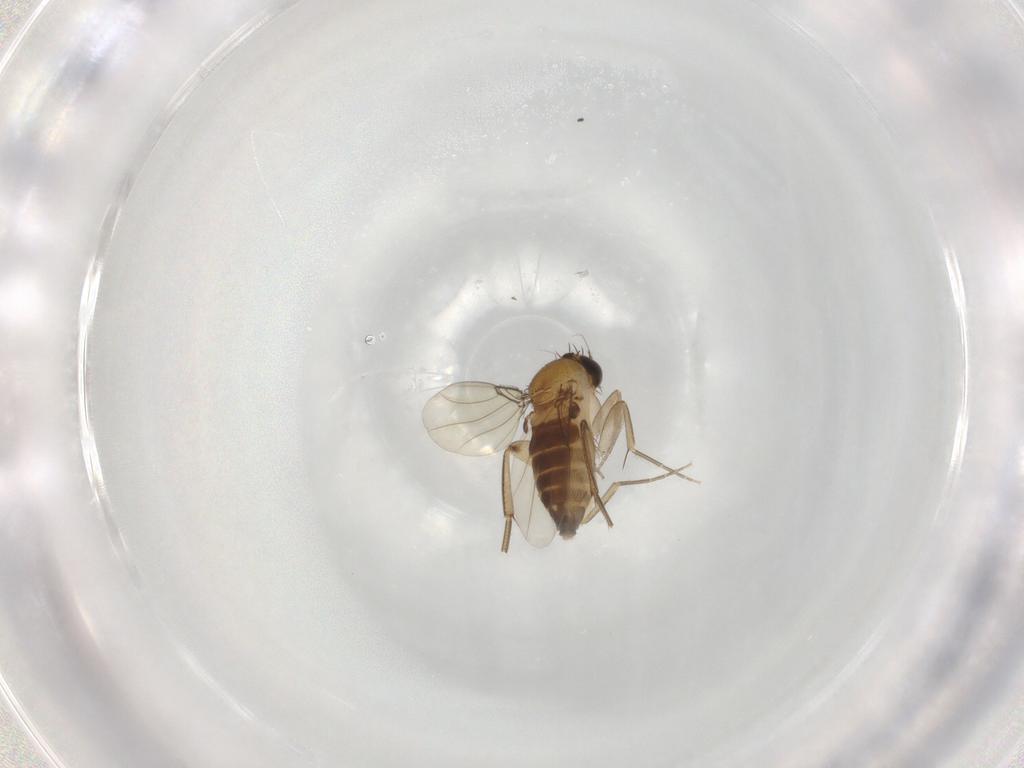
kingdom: Animalia
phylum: Arthropoda
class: Insecta
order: Diptera
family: Phoridae
